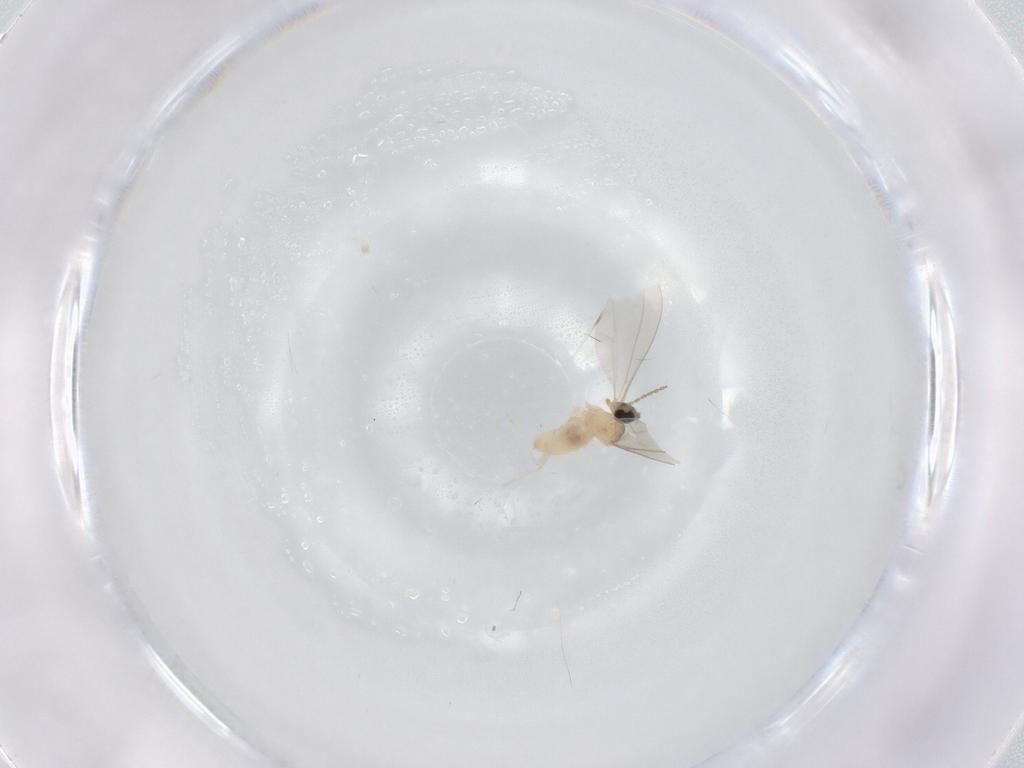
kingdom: Animalia
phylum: Arthropoda
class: Insecta
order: Diptera
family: Cecidomyiidae
